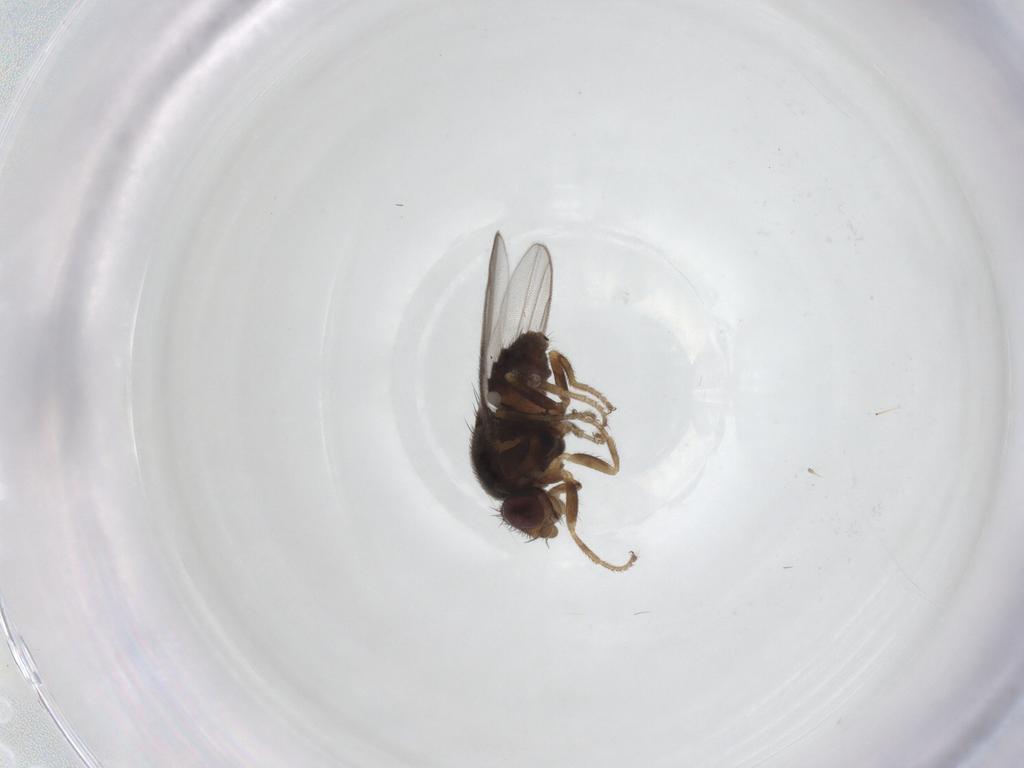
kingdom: Animalia
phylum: Arthropoda
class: Insecta
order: Diptera
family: Chloropidae
